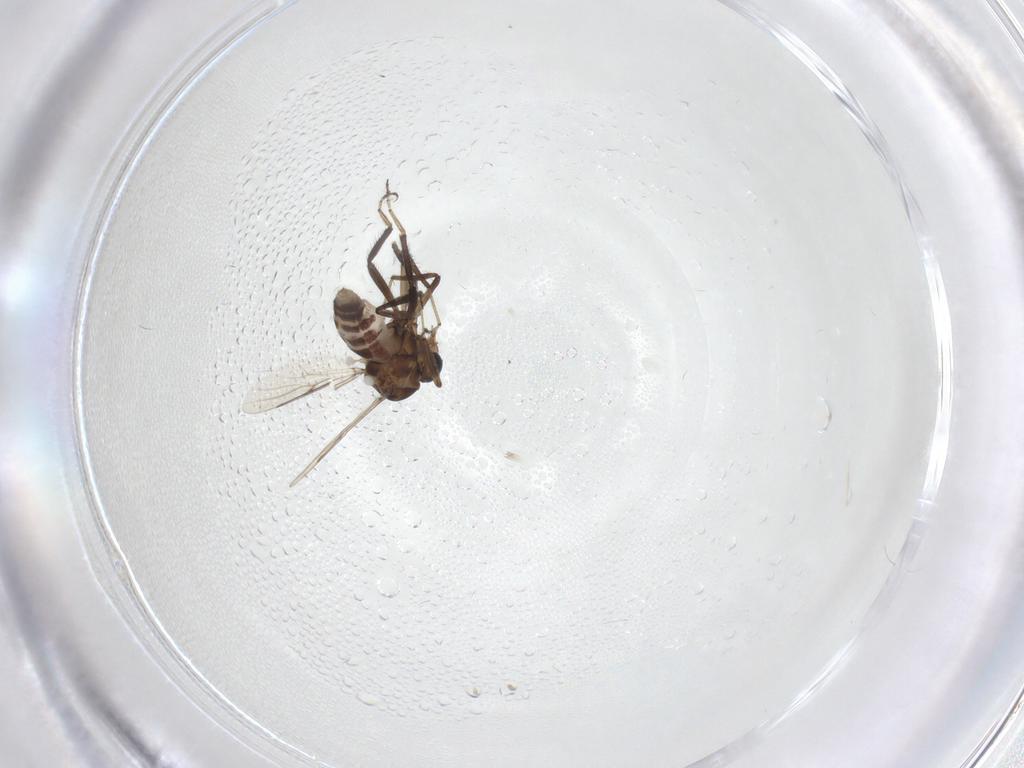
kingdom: Animalia
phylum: Arthropoda
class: Insecta
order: Diptera
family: Ceratopogonidae
